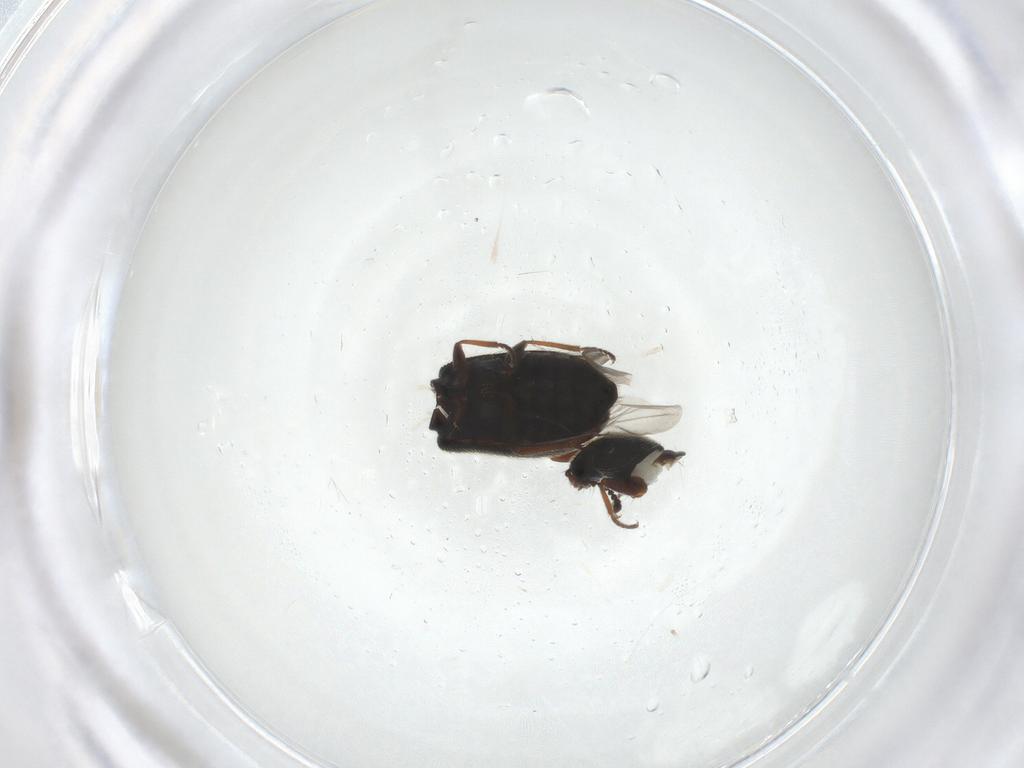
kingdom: Animalia
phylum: Arthropoda
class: Insecta
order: Coleoptera
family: Melyridae
